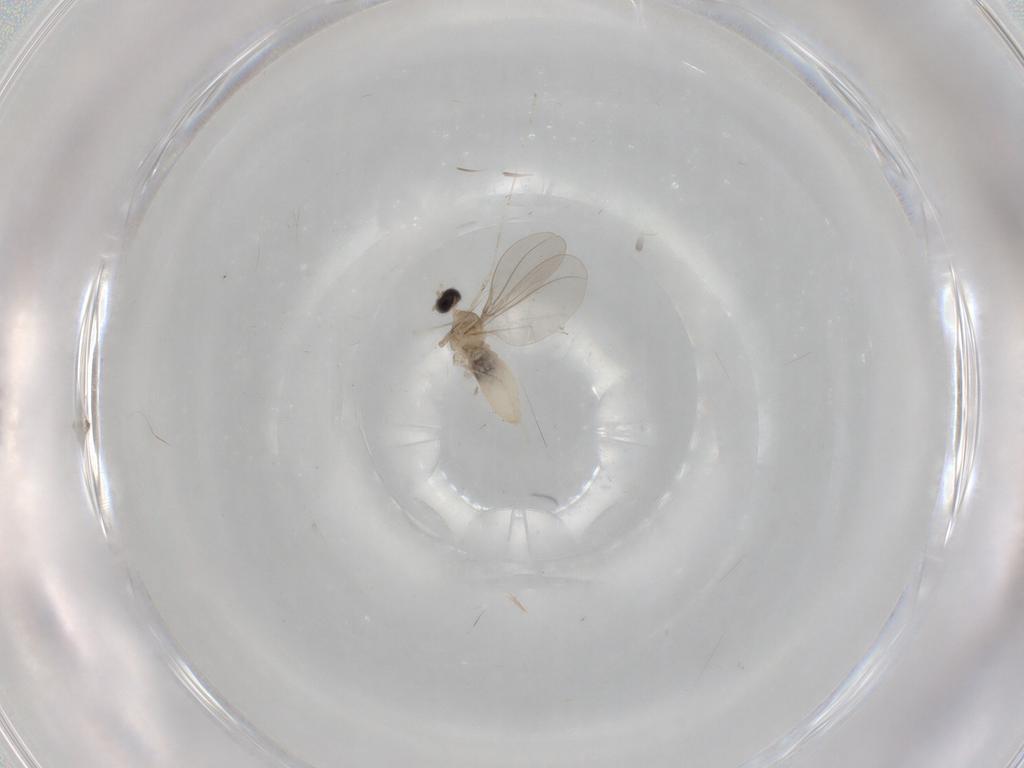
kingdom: Animalia
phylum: Arthropoda
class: Insecta
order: Diptera
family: Cecidomyiidae
